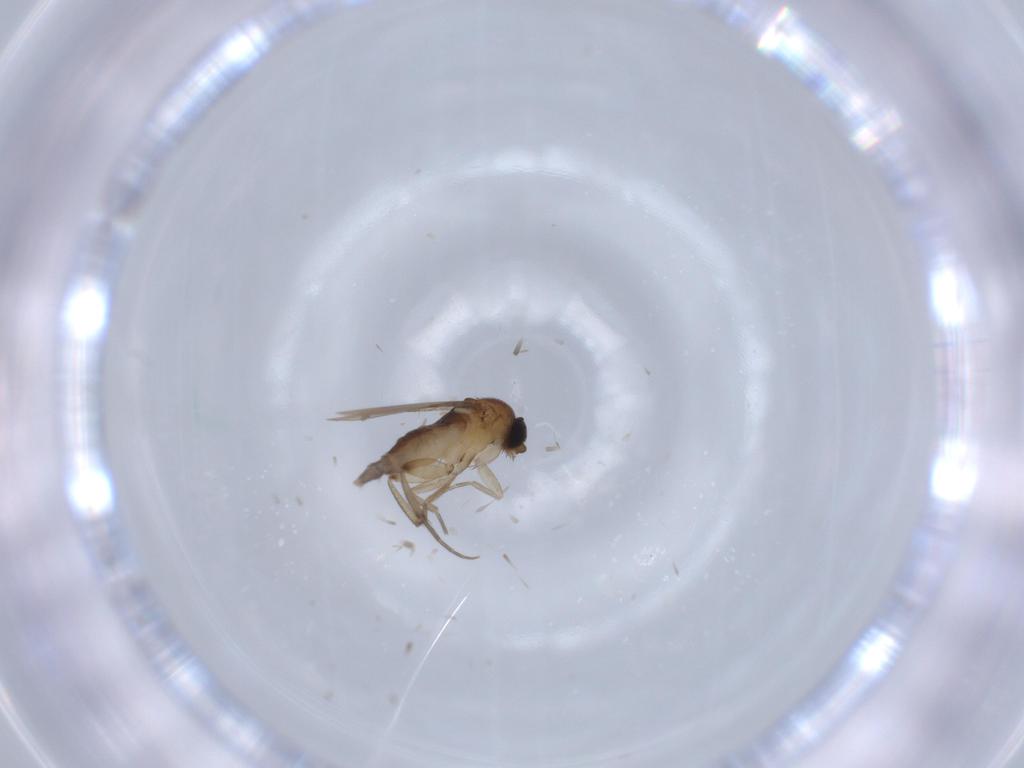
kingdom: Animalia
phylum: Arthropoda
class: Insecta
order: Diptera
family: Phoridae
